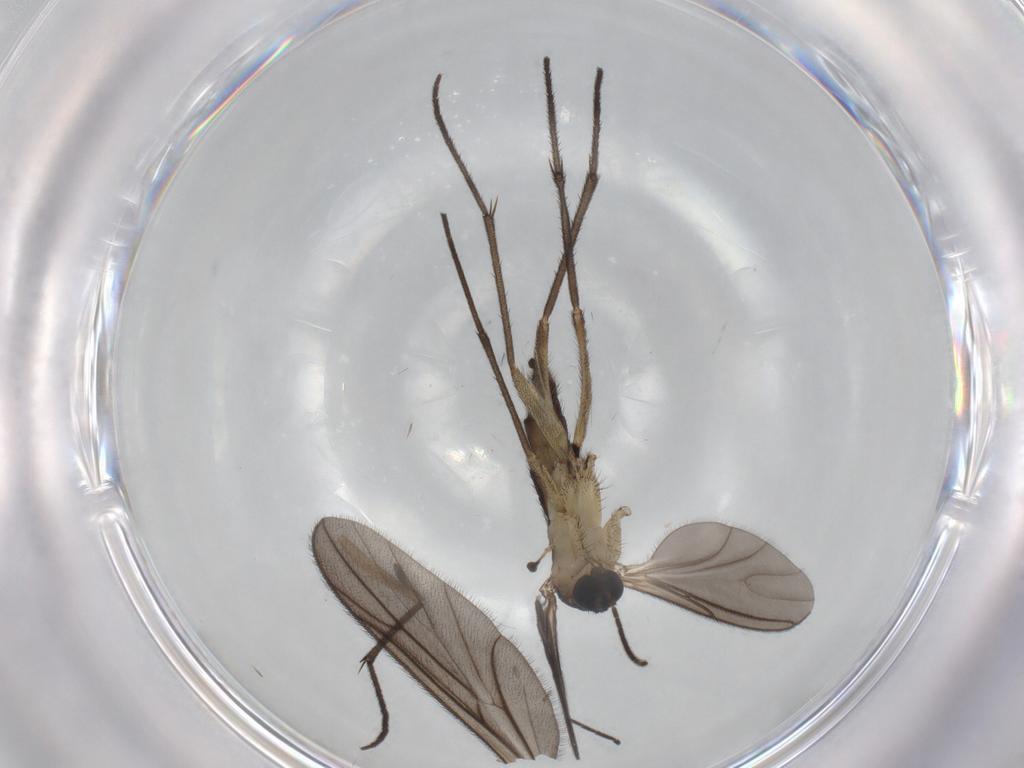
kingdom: Animalia
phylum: Arthropoda
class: Insecta
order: Diptera
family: Sciaridae
